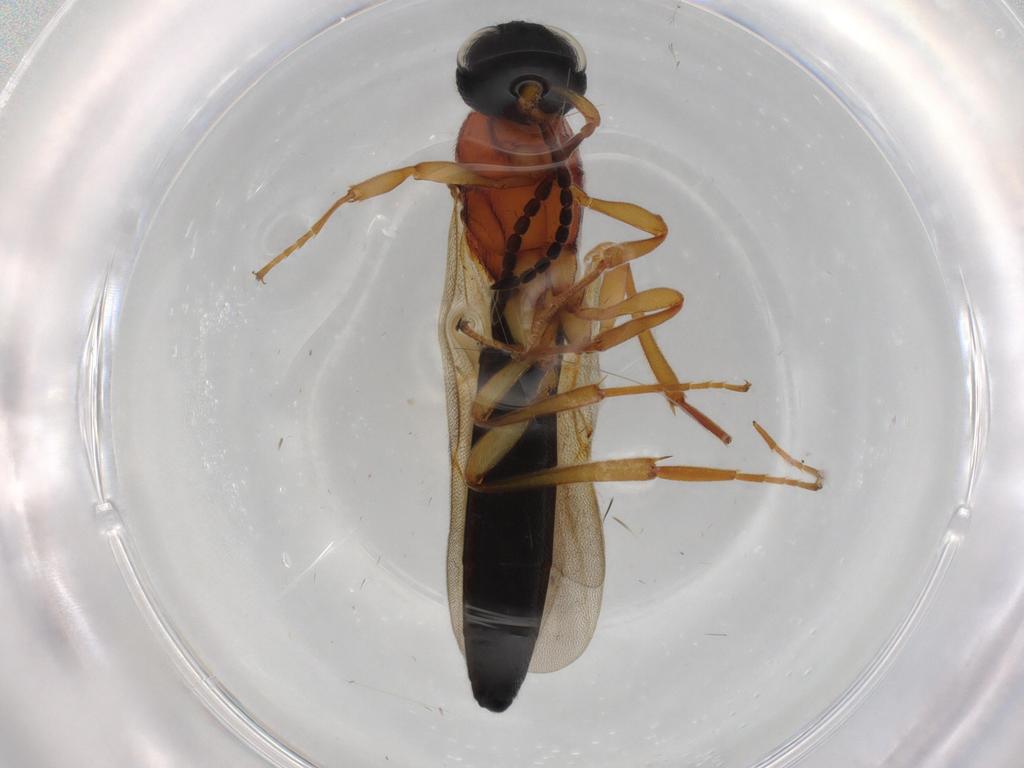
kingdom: Animalia
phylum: Arthropoda
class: Insecta
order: Hymenoptera
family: Scelionidae
